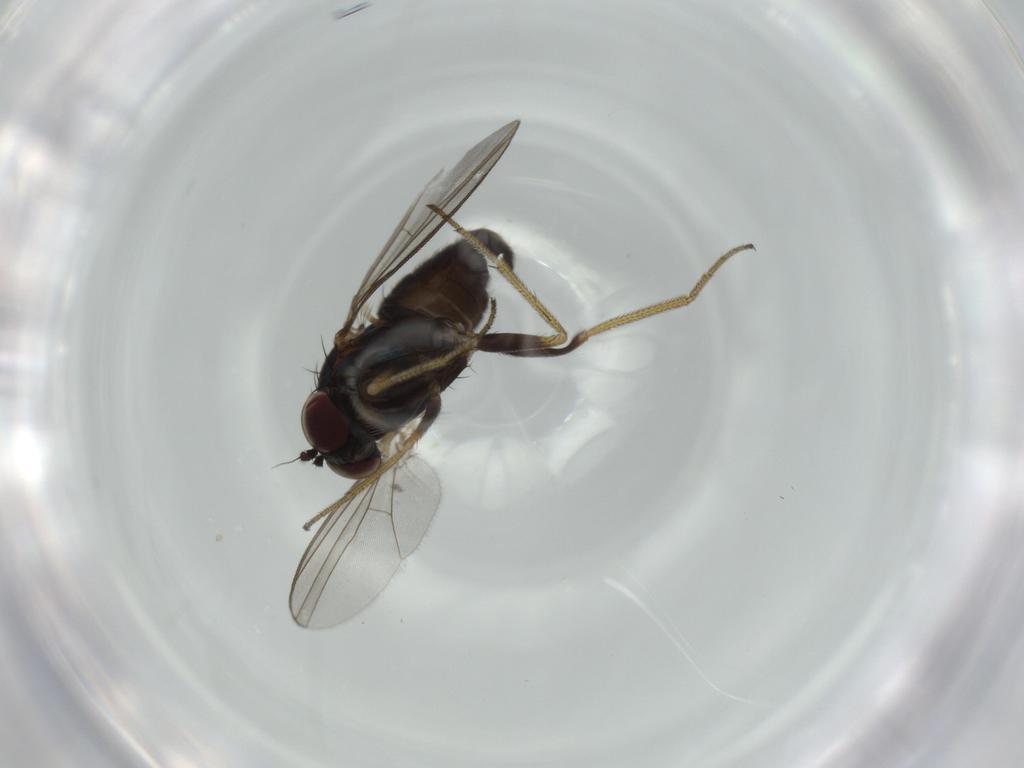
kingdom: Animalia
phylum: Arthropoda
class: Insecta
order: Diptera
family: Dolichopodidae
